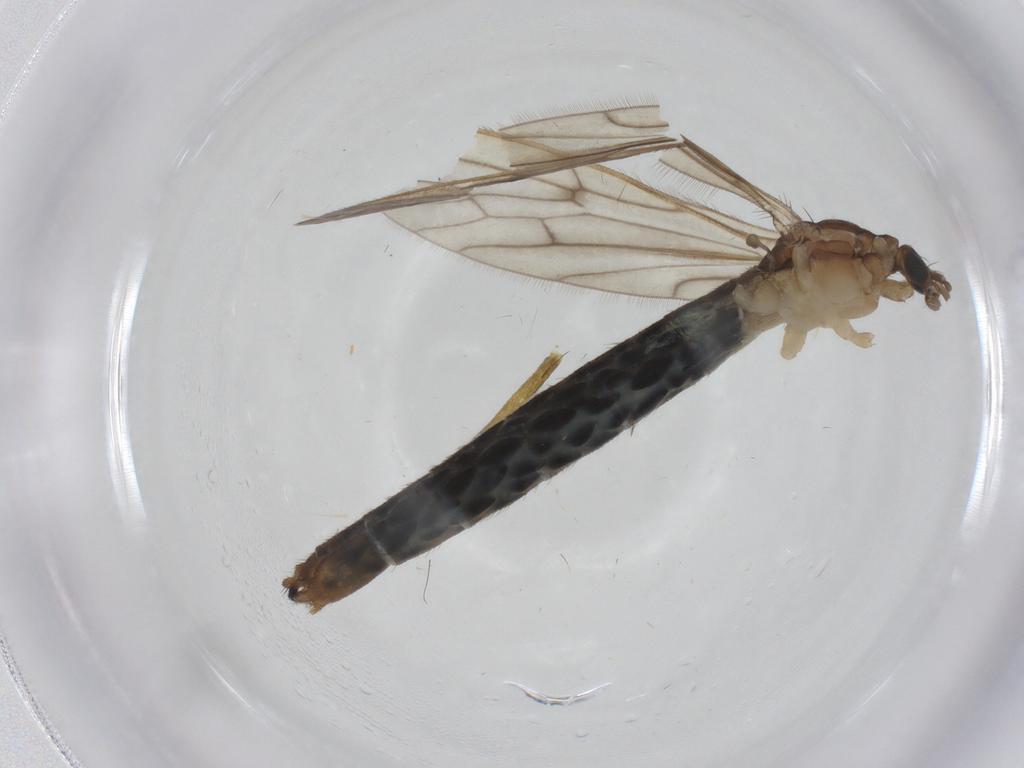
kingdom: Animalia
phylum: Arthropoda
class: Insecta
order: Diptera
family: Limoniidae
